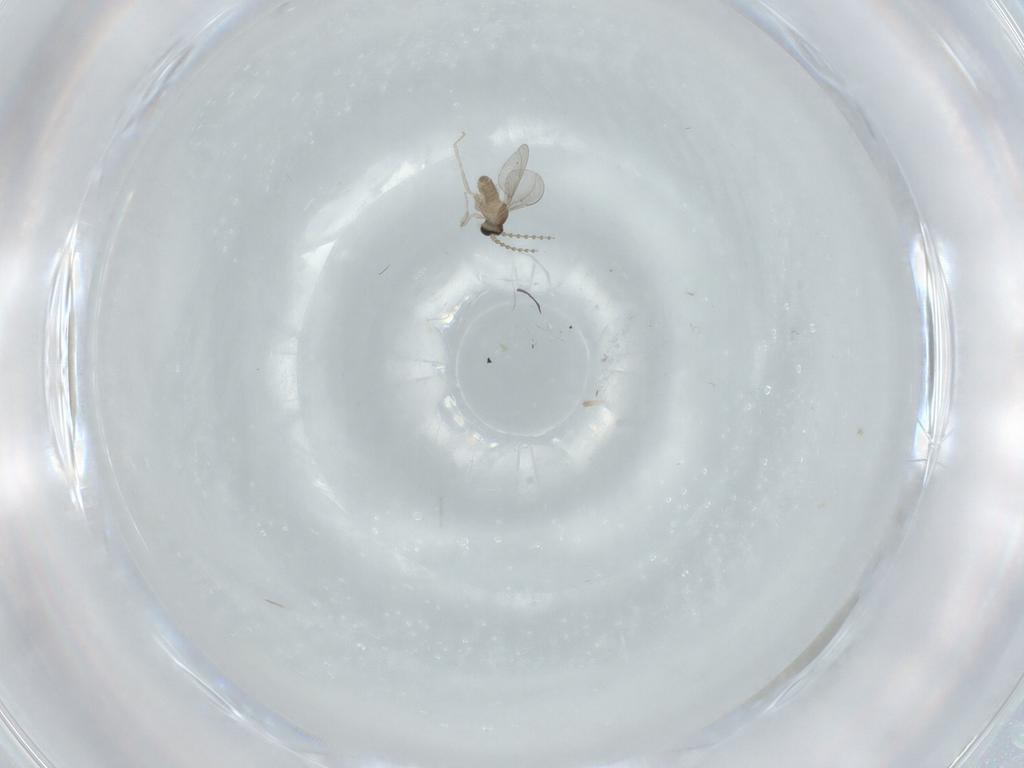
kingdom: Animalia
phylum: Arthropoda
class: Insecta
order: Diptera
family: Cecidomyiidae
